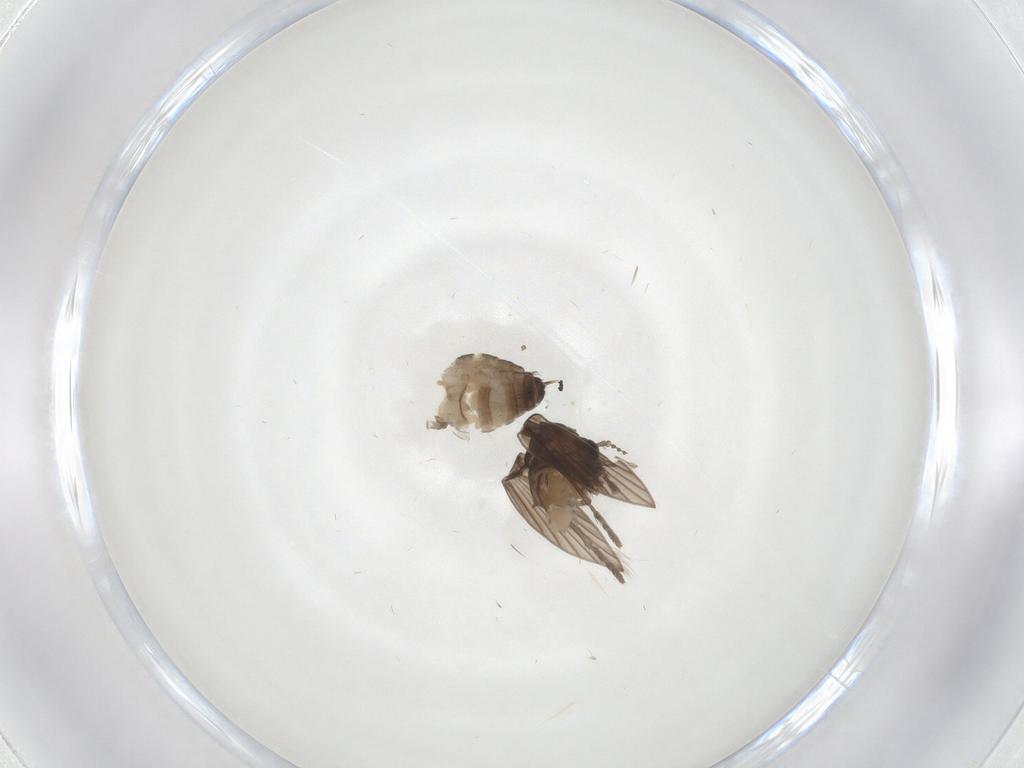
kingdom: Animalia
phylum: Arthropoda
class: Insecta
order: Diptera
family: Psychodidae
